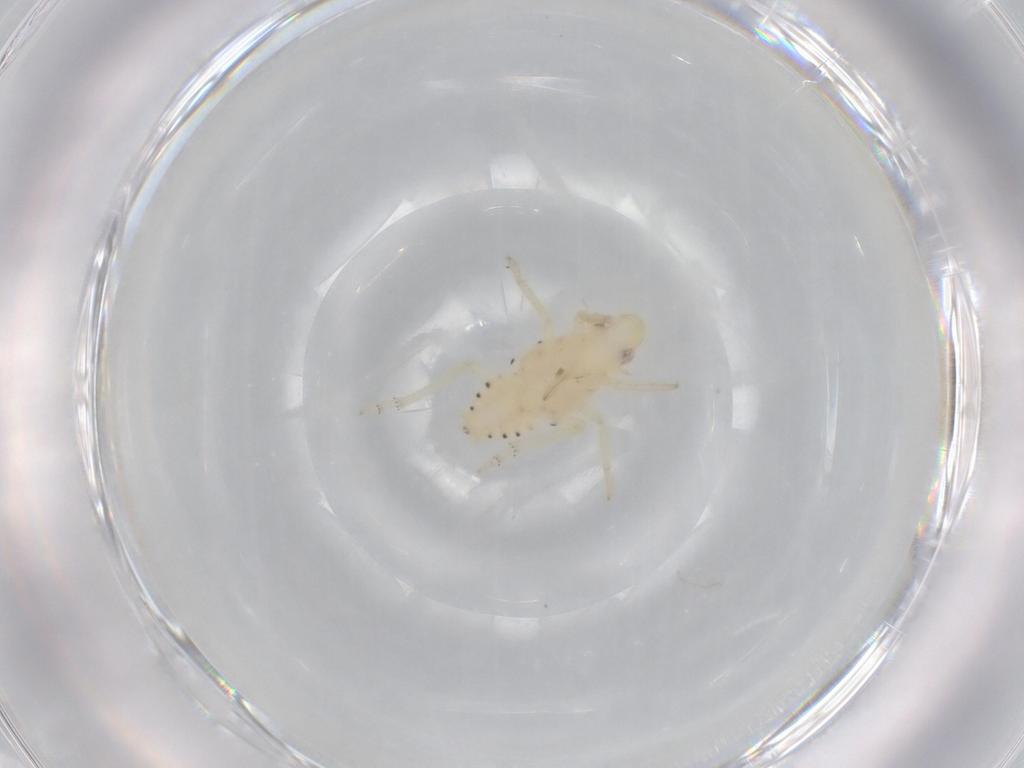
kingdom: Animalia
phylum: Arthropoda
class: Insecta
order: Hemiptera
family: Tropiduchidae
